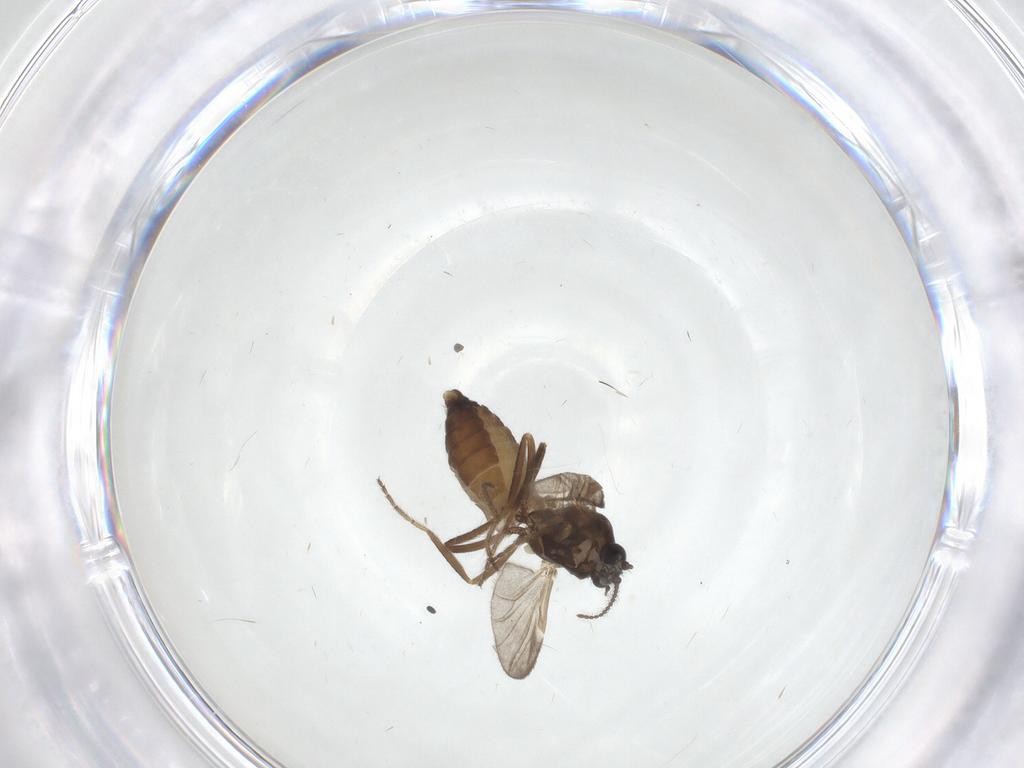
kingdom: Animalia
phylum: Arthropoda
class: Insecta
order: Diptera
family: Ceratopogonidae
